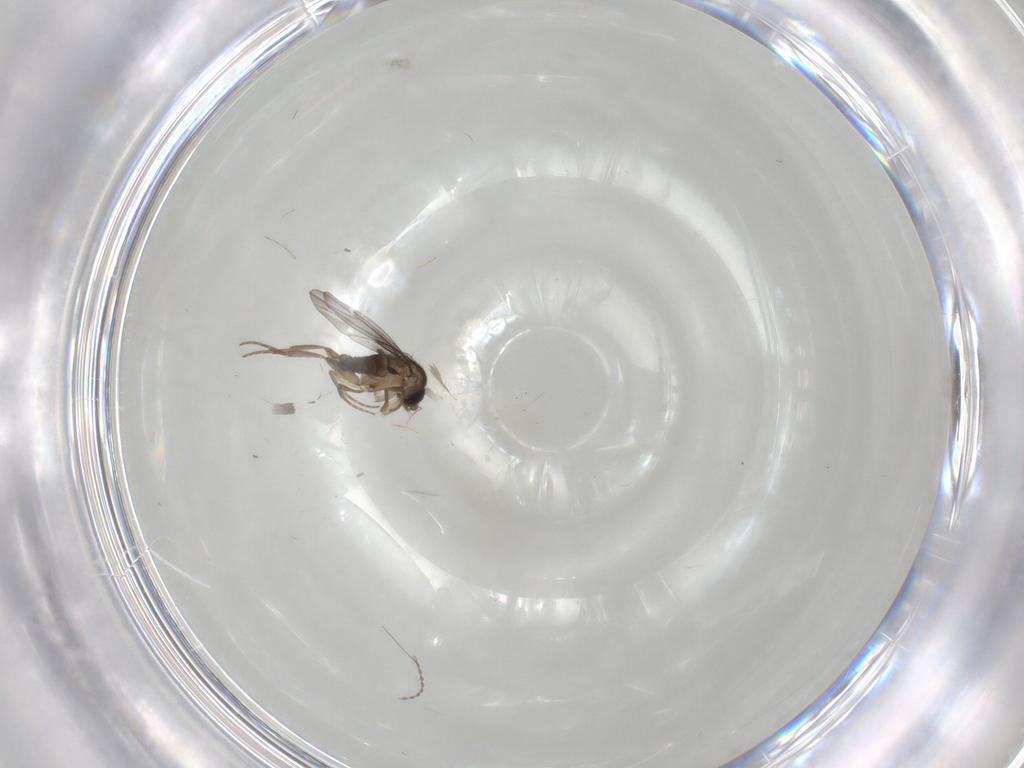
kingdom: Animalia
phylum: Arthropoda
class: Insecta
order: Diptera
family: Phoridae
